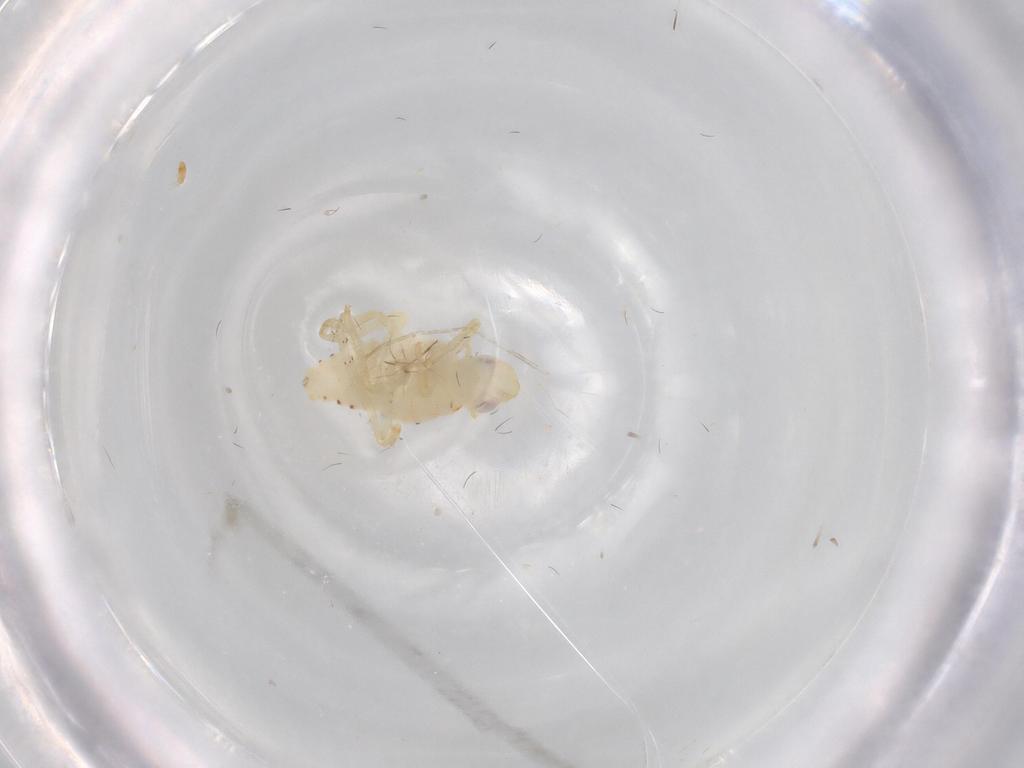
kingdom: Animalia
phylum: Arthropoda
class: Insecta
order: Hemiptera
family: Tropiduchidae
